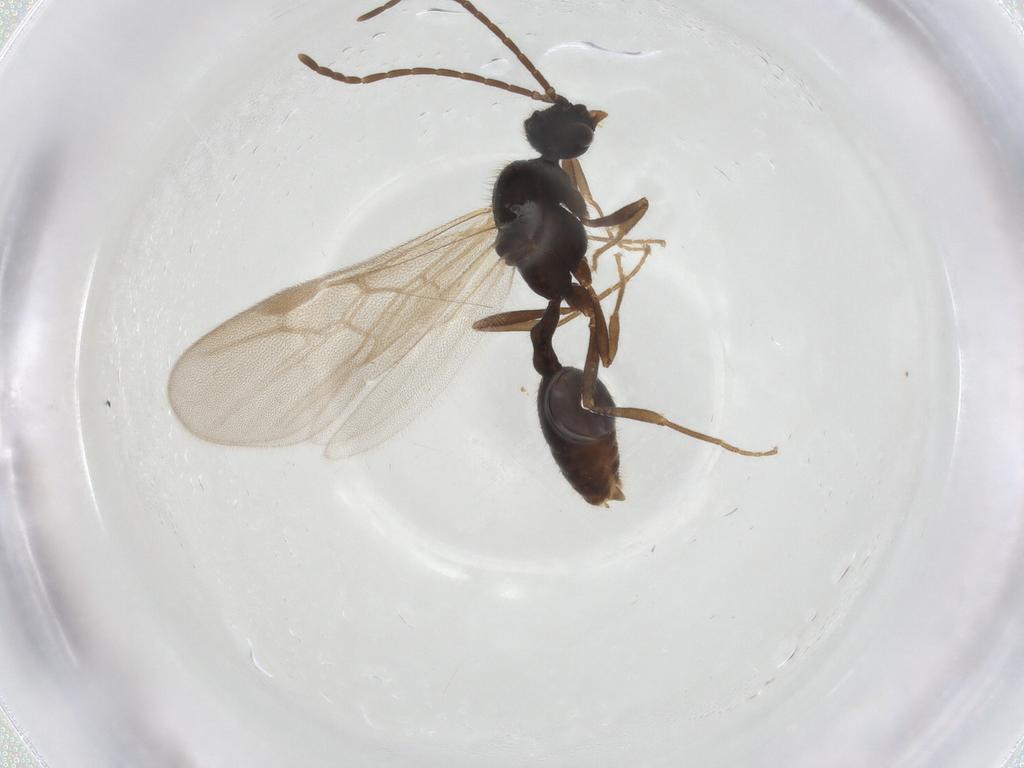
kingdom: Animalia
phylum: Arthropoda
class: Insecta
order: Hymenoptera
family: Formicidae
